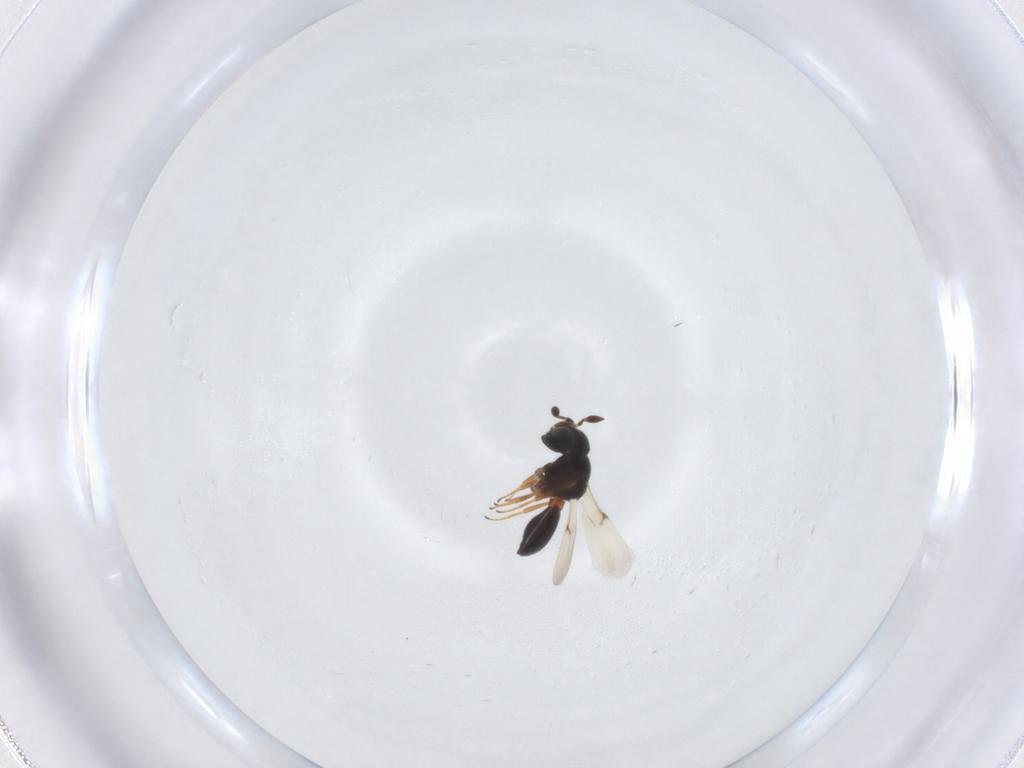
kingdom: Animalia
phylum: Arthropoda
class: Arachnida
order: Araneae
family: Pholcidae
